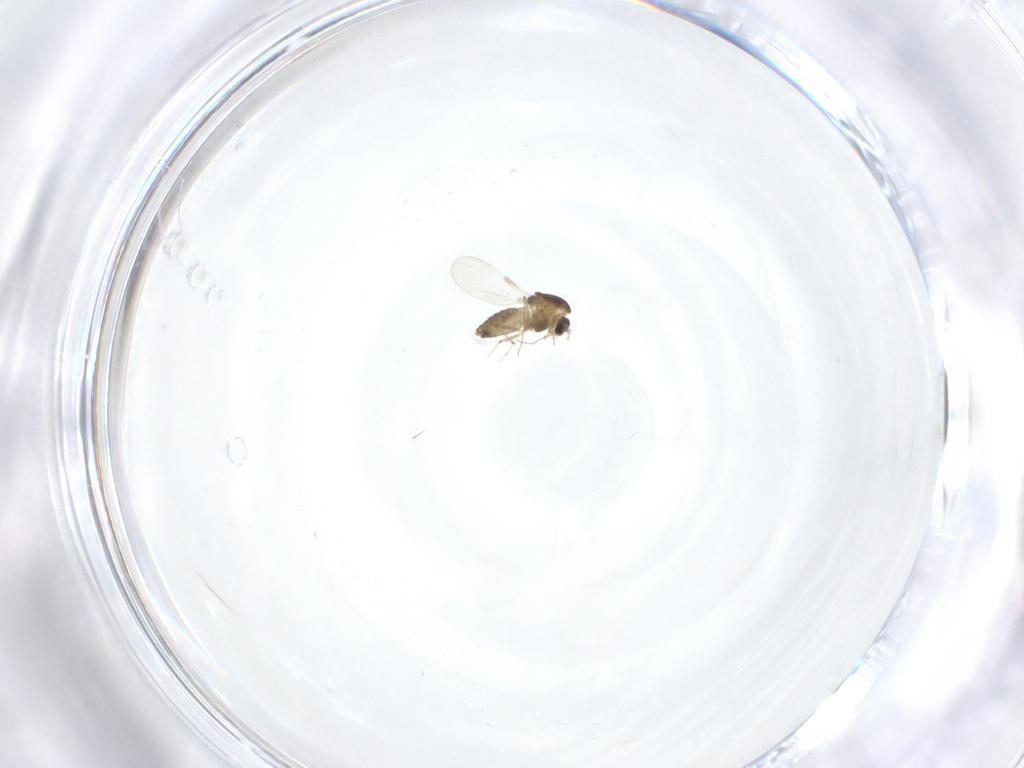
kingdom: Animalia
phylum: Arthropoda
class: Insecta
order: Diptera
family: Chironomidae
